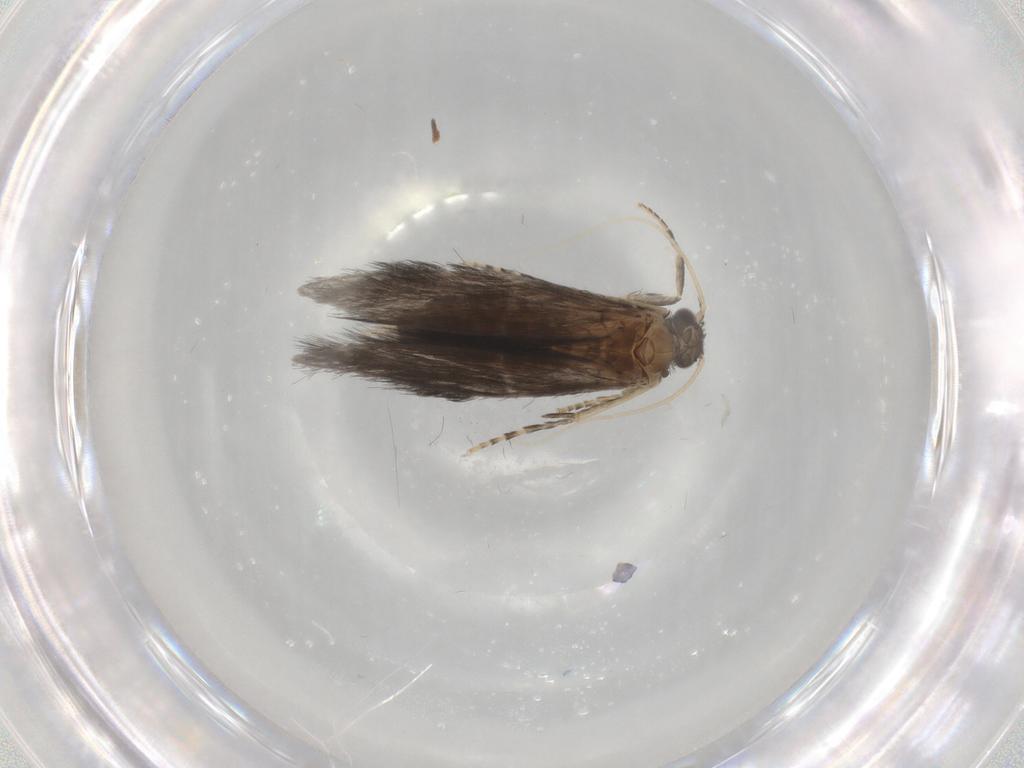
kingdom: Animalia
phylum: Arthropoda
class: Insecta
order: Trichoptera
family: Hydroptilidae
